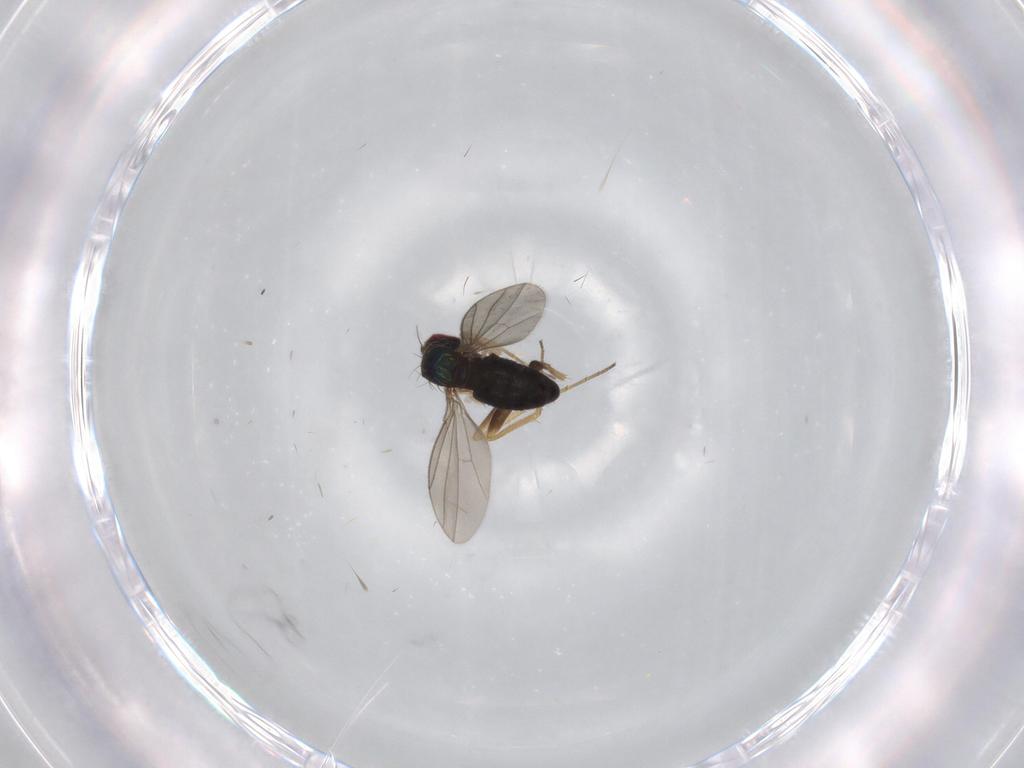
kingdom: Animalia
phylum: Arthropoda
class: Insecta
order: Diptera
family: Dolichopodidae
